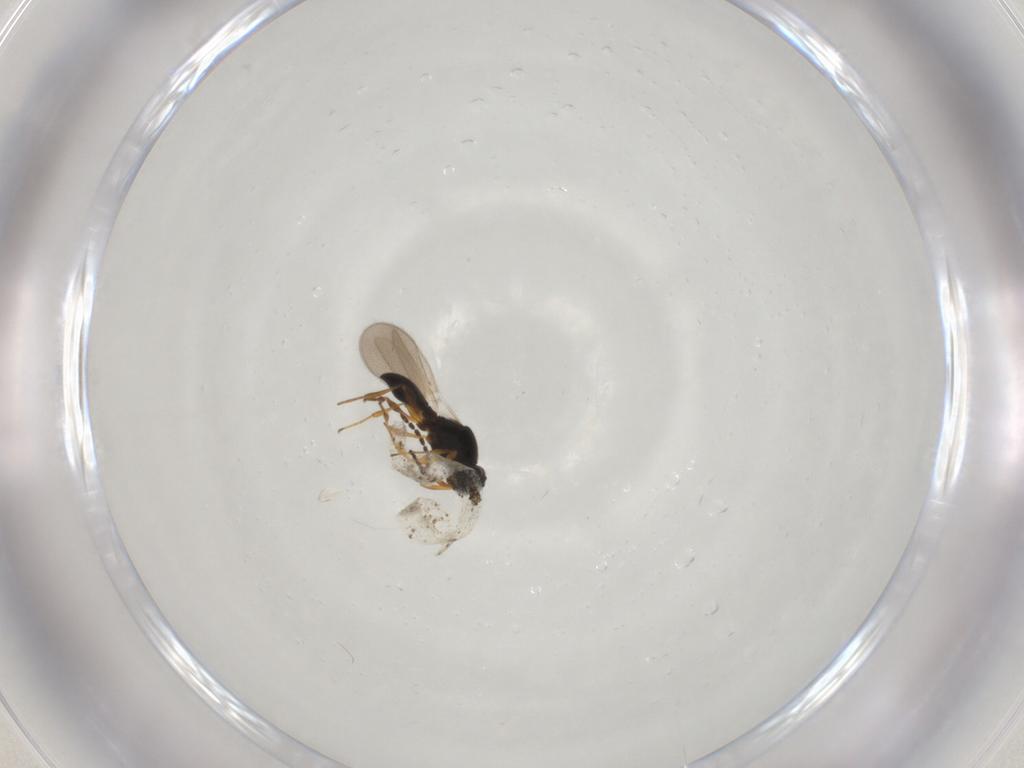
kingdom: Animalia
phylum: Arthropoda
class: Insecta
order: Hymenoptera
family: Platygastridae
